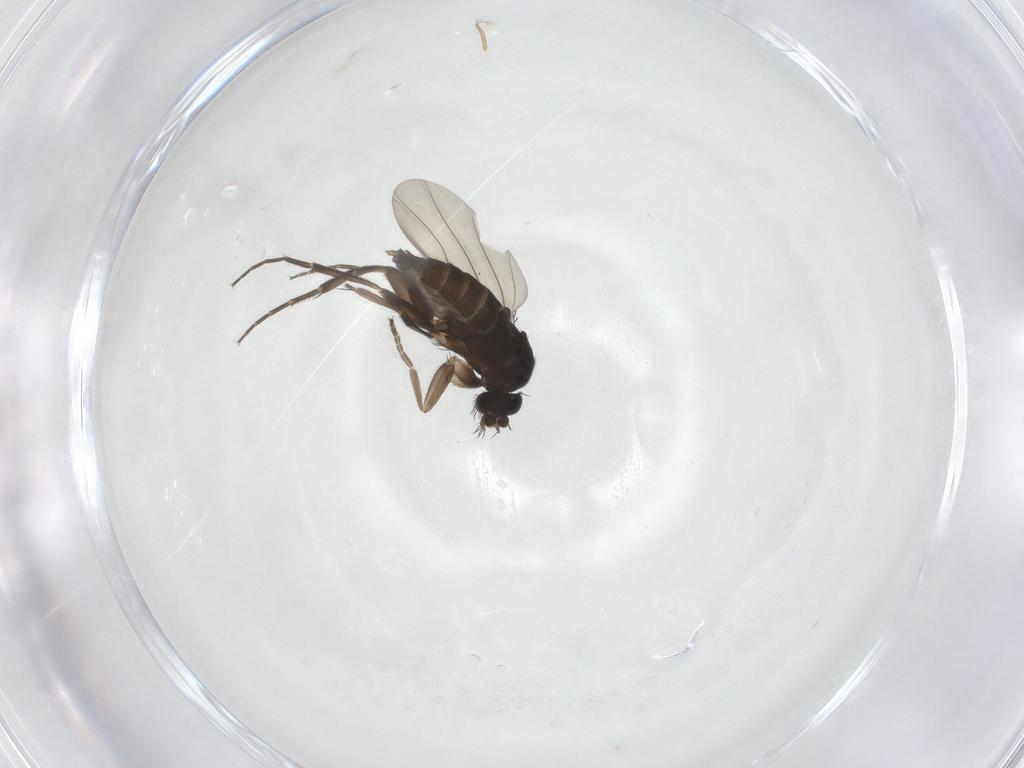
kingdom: Animalia
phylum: Arthropoda
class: Insecta
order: Diptera
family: Phoridae
